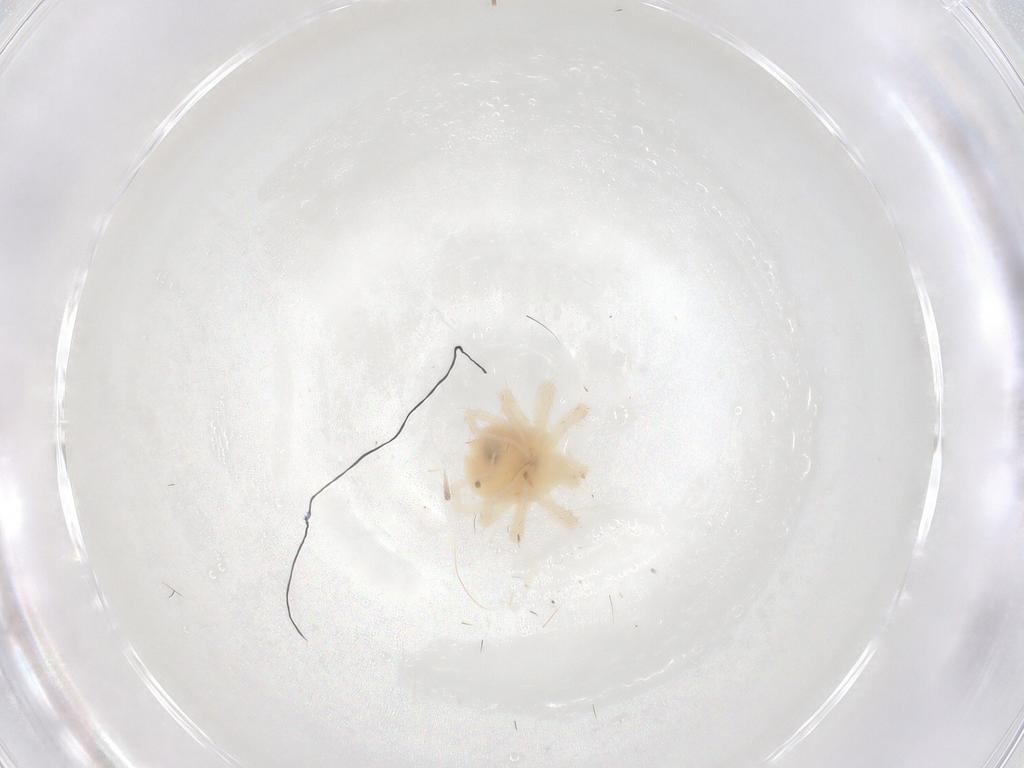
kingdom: Animalia
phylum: Arthropoda
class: Arachnida
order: Trombidiformes
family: Anystidae
